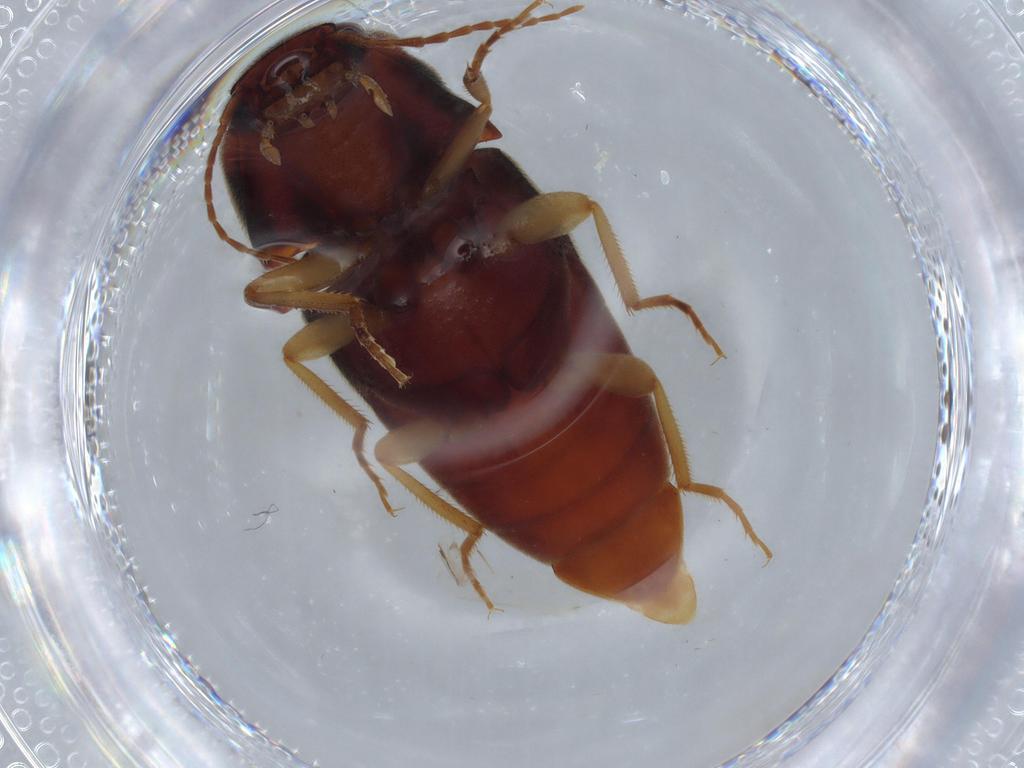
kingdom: Animalia
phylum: Arthropoda
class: Insecta
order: Coleoptera
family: Elateridae
